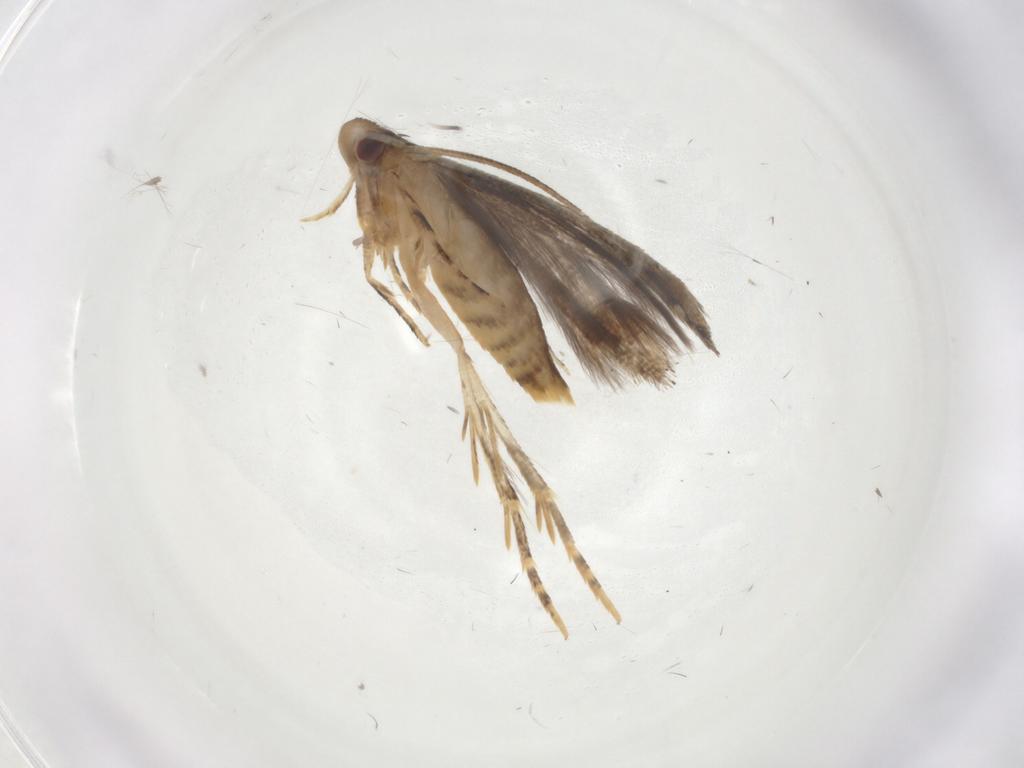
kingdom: Animalia
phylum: Arthropoda
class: Insecta
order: Lepidoptera
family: Momphidae
